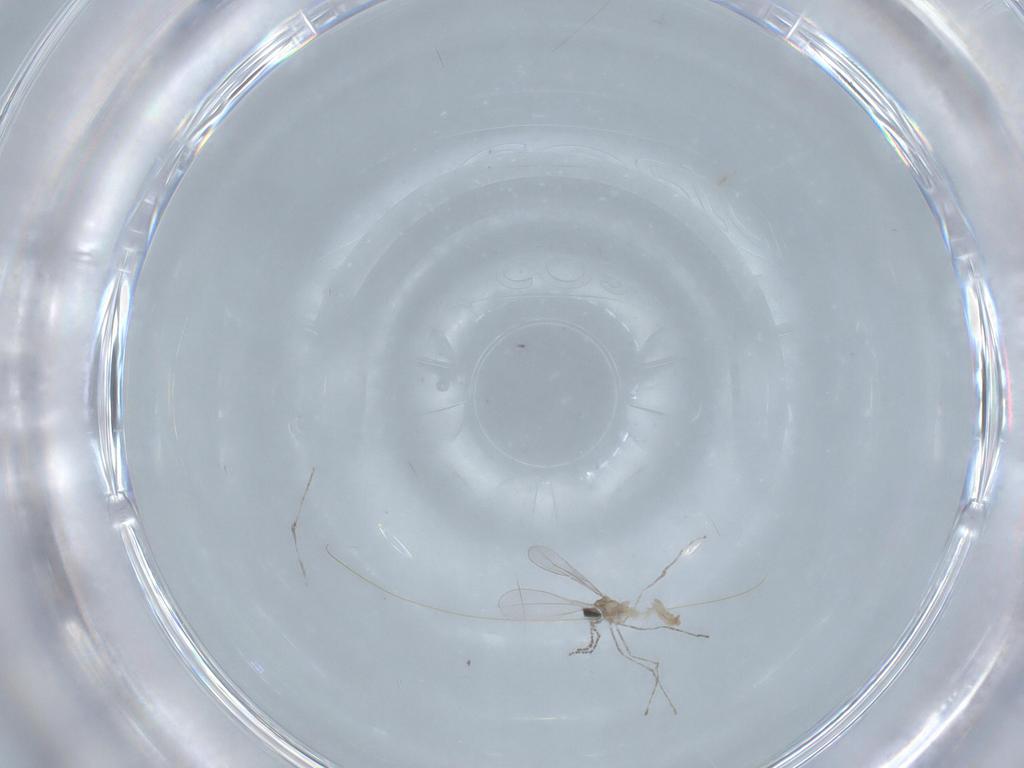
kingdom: Animalia
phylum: Arthropoda
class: Insecta
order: Diptera
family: Cecidomyiidae
